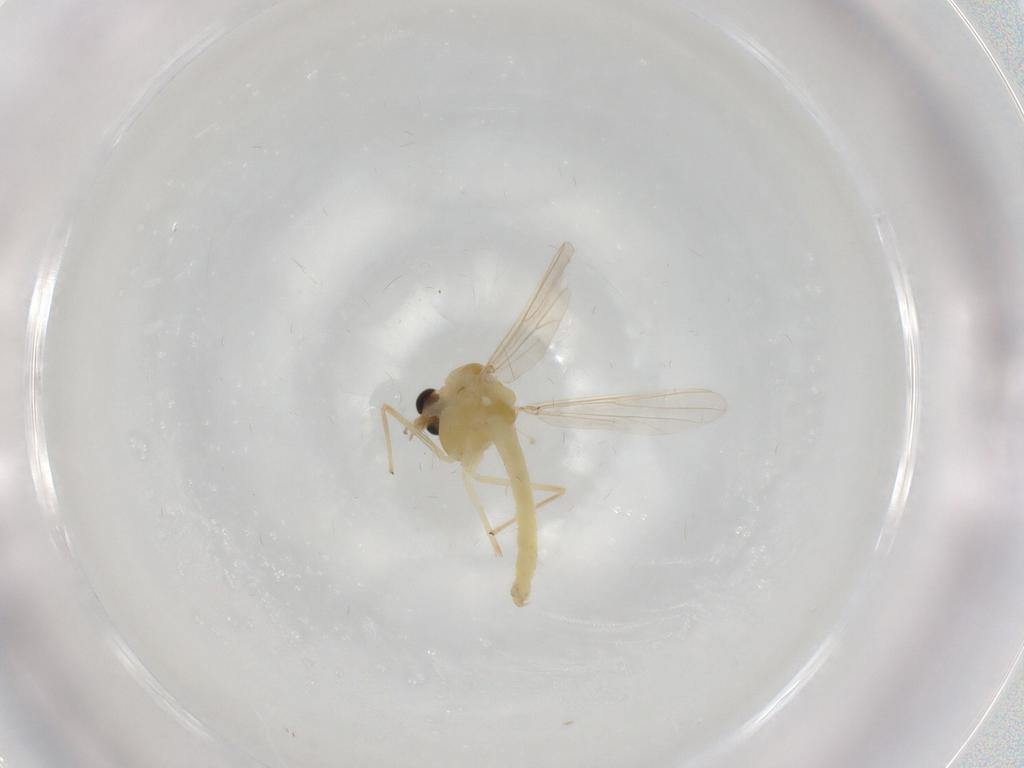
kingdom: Animalia
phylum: Arthropoda
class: Insecta
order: Diptera
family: Chironomidae
